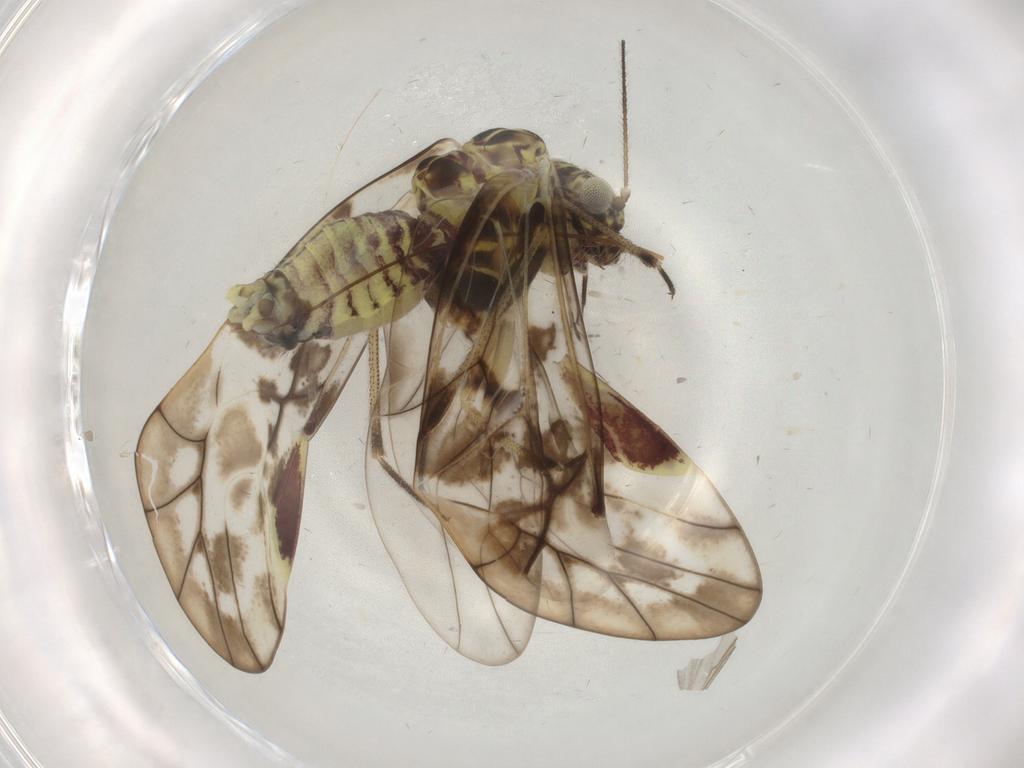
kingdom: Animalia
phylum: Arthropoda
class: Insecta
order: Psocodea
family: Psocidae
